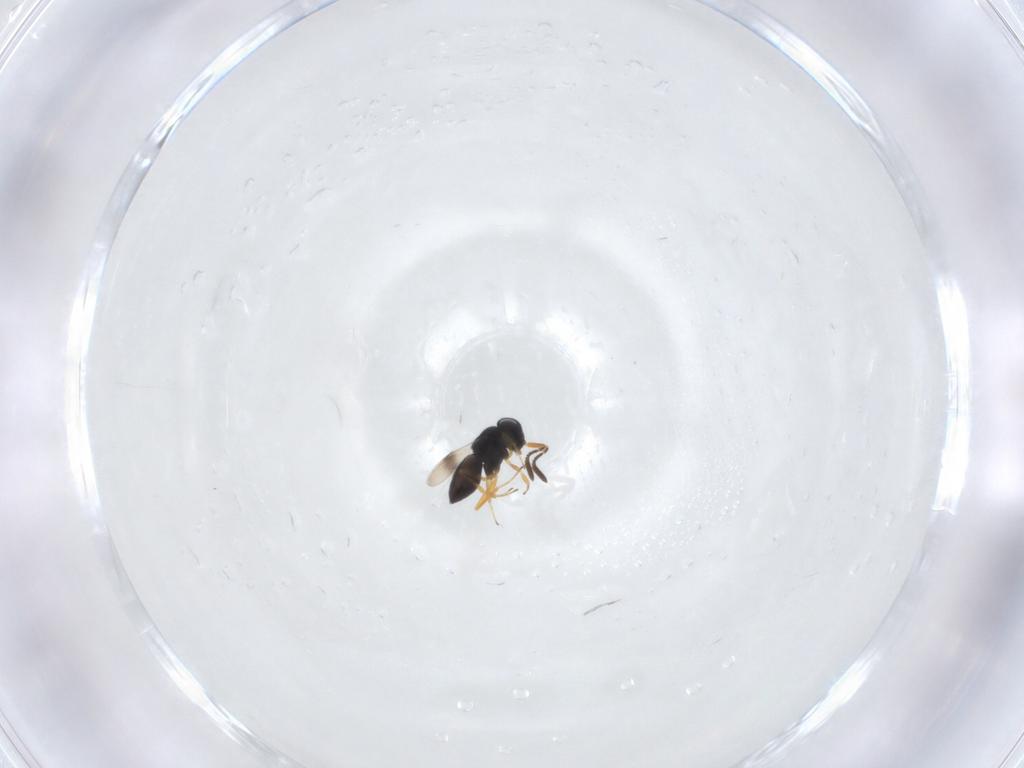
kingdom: Animalia
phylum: Arthropoda
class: Insecta
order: Hymenoptera
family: Scelionidae
